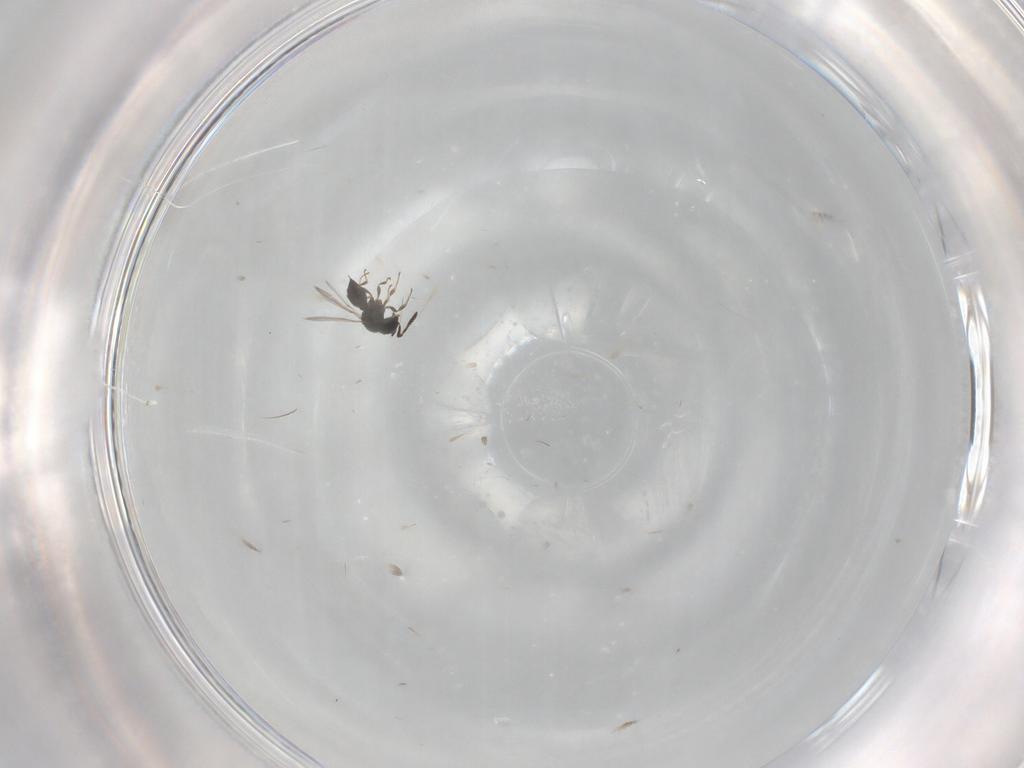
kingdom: Animalia
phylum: Arthropoda
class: Insecta
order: Hymenoptera
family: Scelionidae
